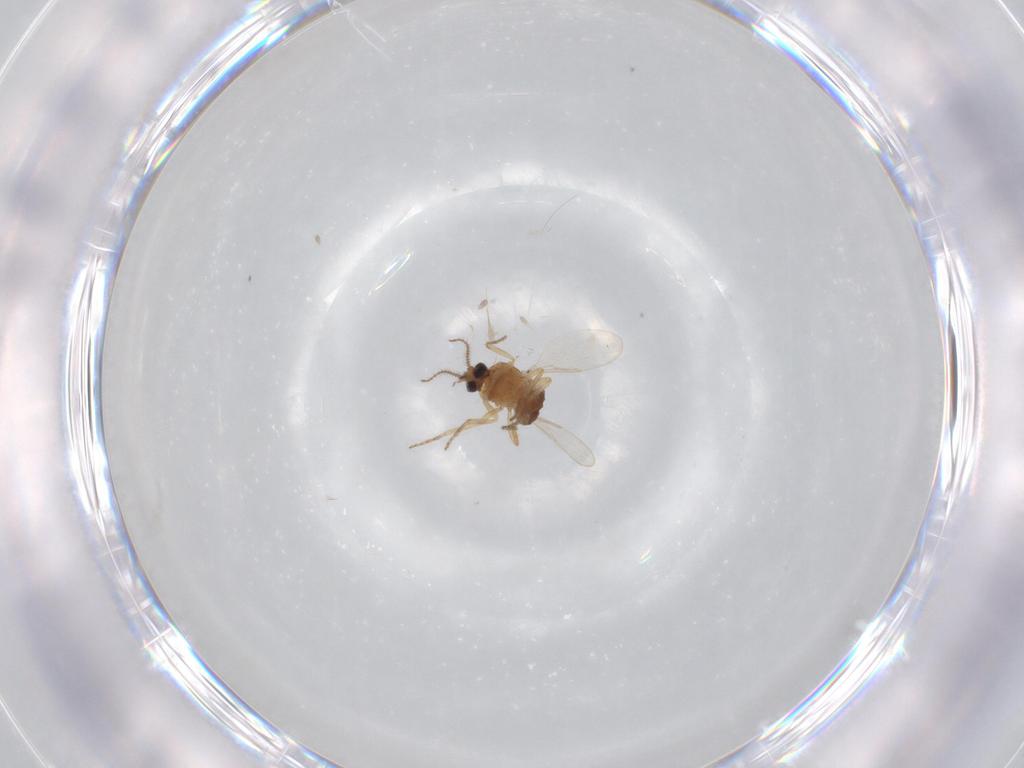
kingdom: Animalia
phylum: Arthropoda
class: Insecta
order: Diptera
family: Ceratopogonidae
